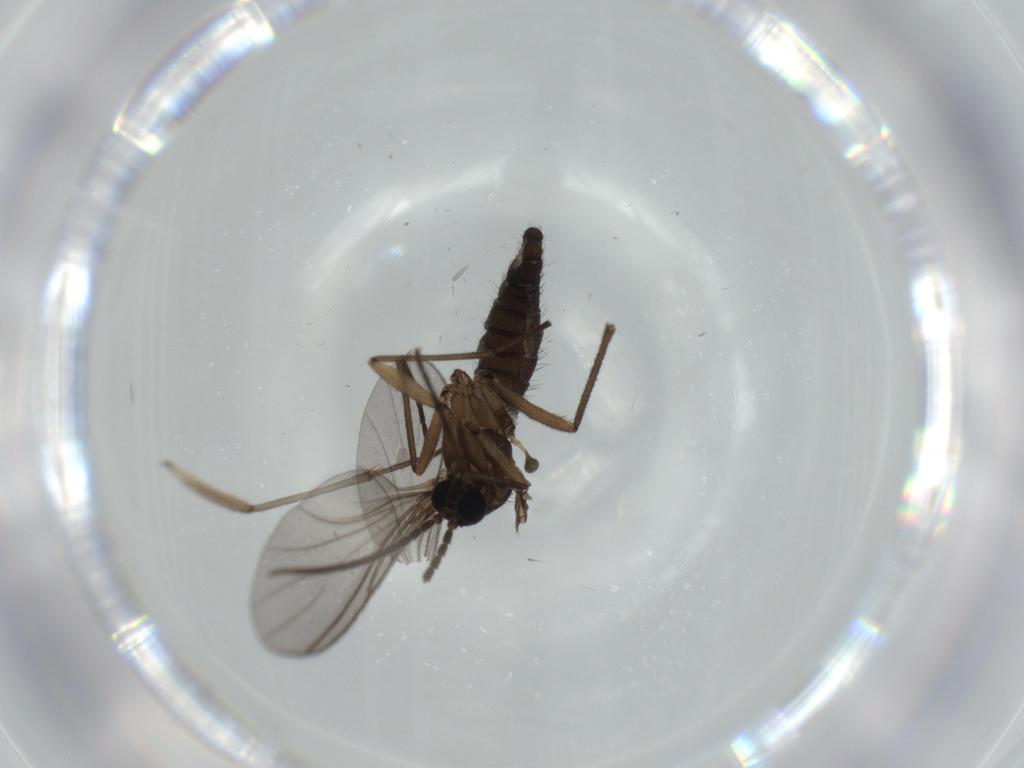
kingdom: Animalia
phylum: Arthropoda
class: Insecta
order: Diptera
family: Sciaridae
